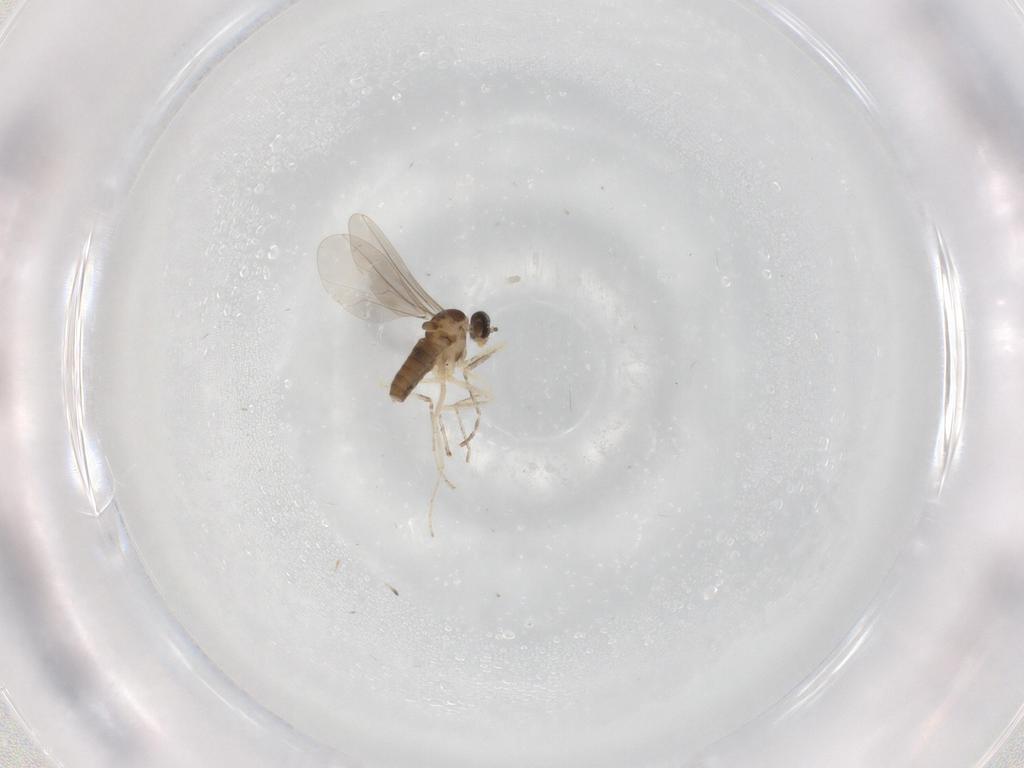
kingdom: Animalia
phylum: Arthropoda
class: Insecta
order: Diptera
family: Cecidomyiidae
